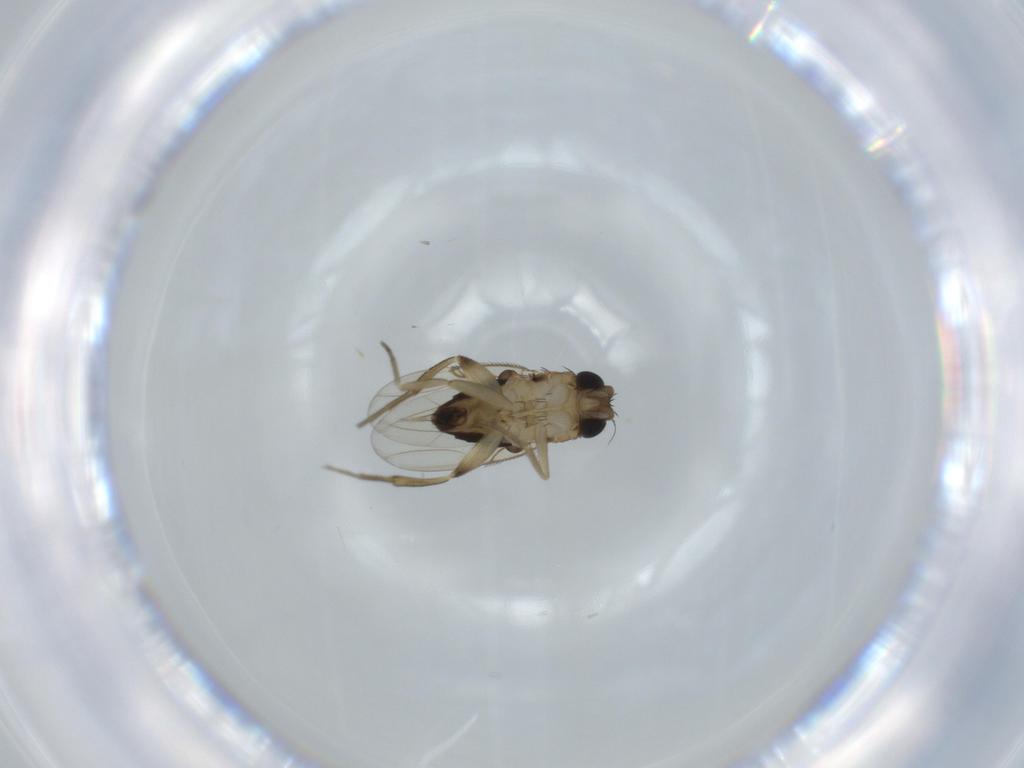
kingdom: Animalia
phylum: Arthropoda
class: Insecta
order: Diptera
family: Phoridae
